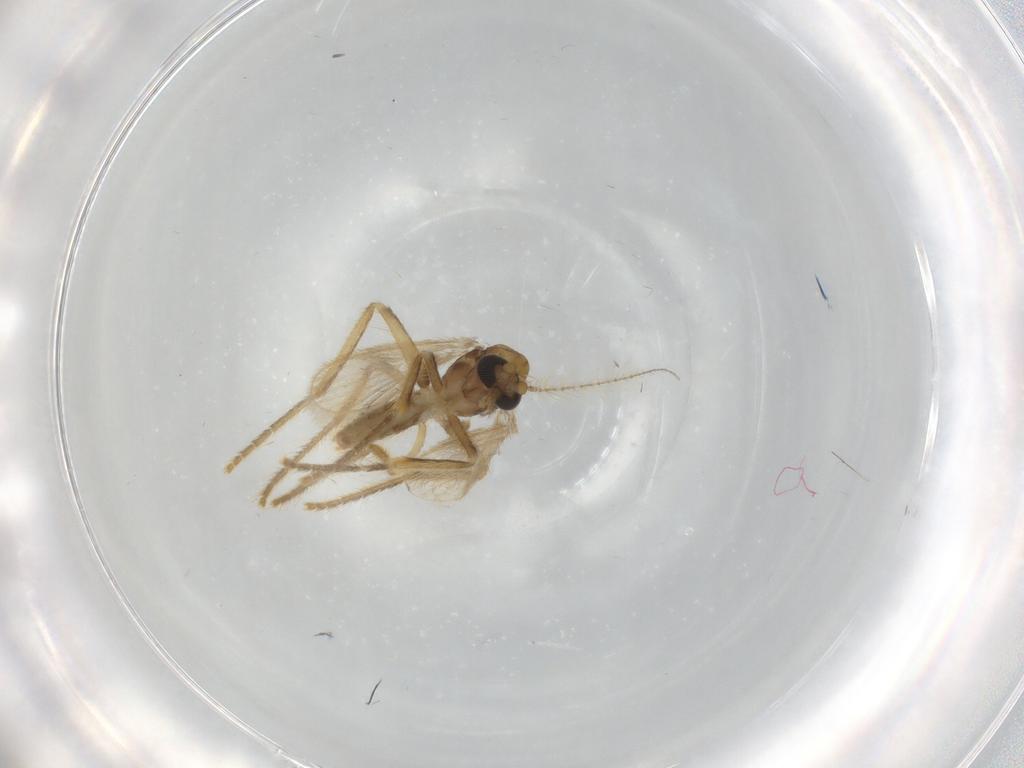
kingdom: Animalia
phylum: Arthropoda
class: Insecta
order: Diptera
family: Corethrellidae
